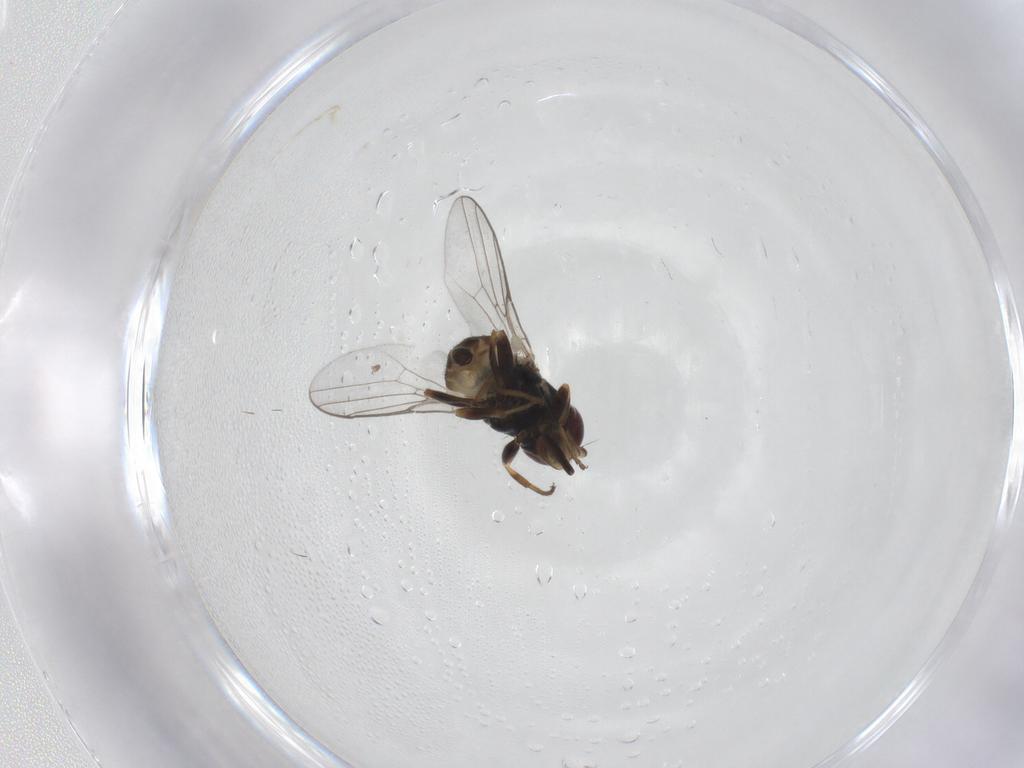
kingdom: Animalia
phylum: Arthropoda
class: Insecta
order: Diptera
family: Chloropidae
